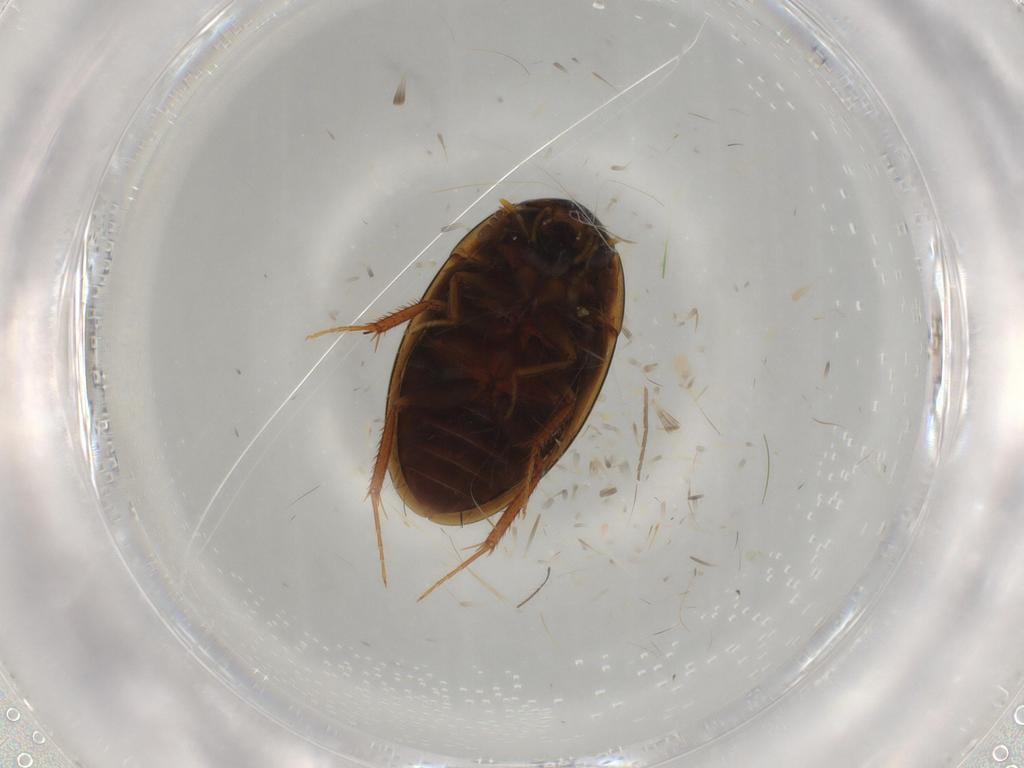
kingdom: Animalia
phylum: Arthropoda
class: Insecta
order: Coleoptera
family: Hydrophilidae
